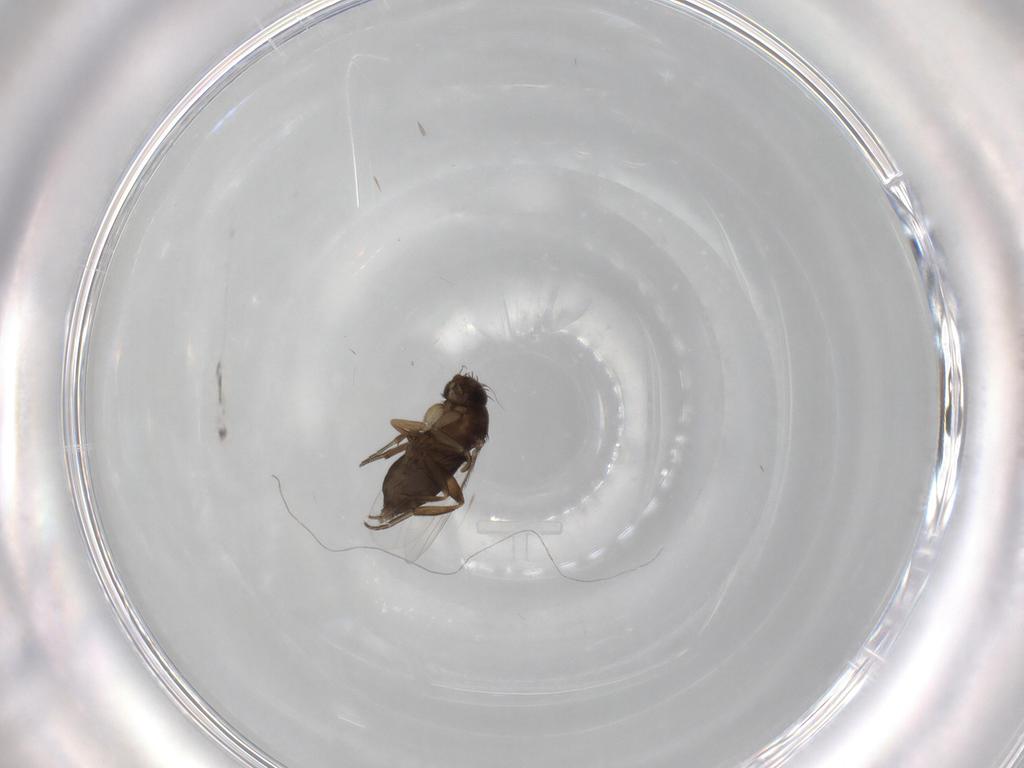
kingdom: Animalia
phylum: Arthropoda
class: Insecta
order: Diptera
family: Phoridae
